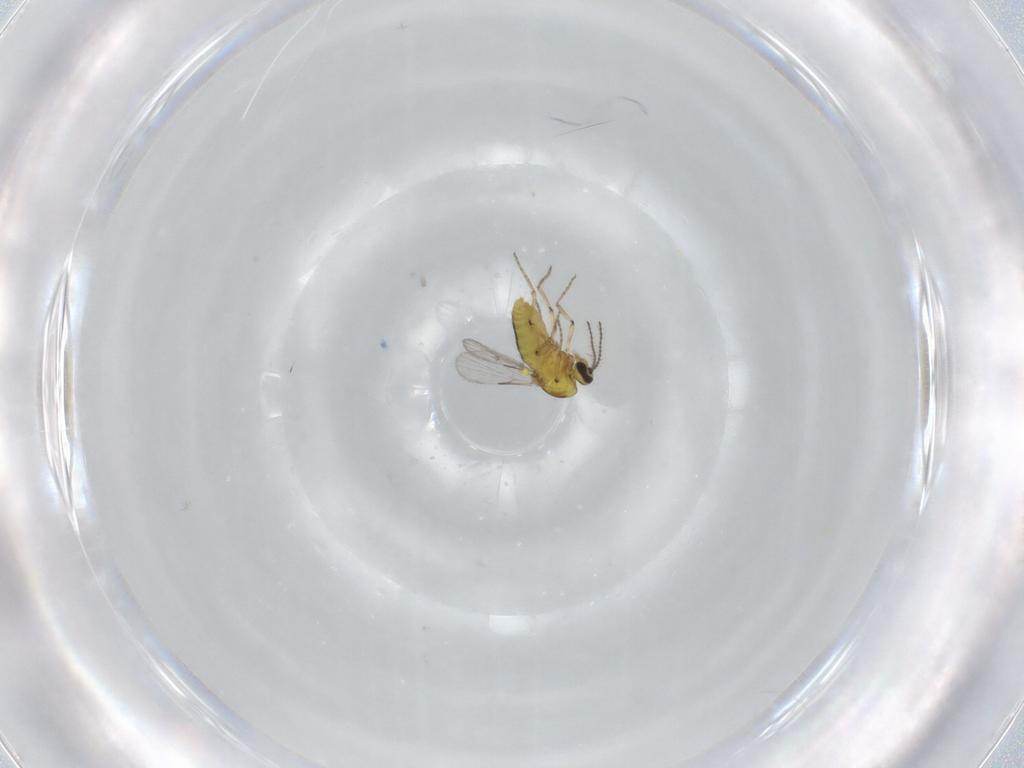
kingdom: Animalia
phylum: Arthropoda
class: Insecta
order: Diptera
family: Ceratopogonidae
